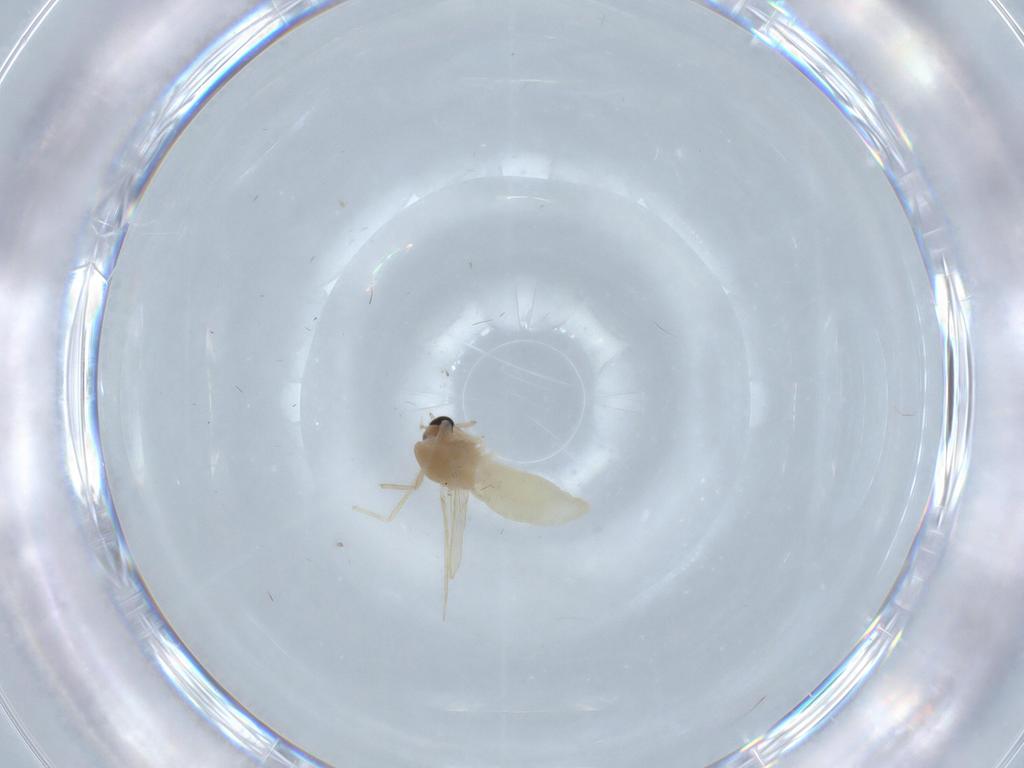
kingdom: Animalia
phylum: Arthropoda
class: Insecta
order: Diptera
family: Chironomidae
